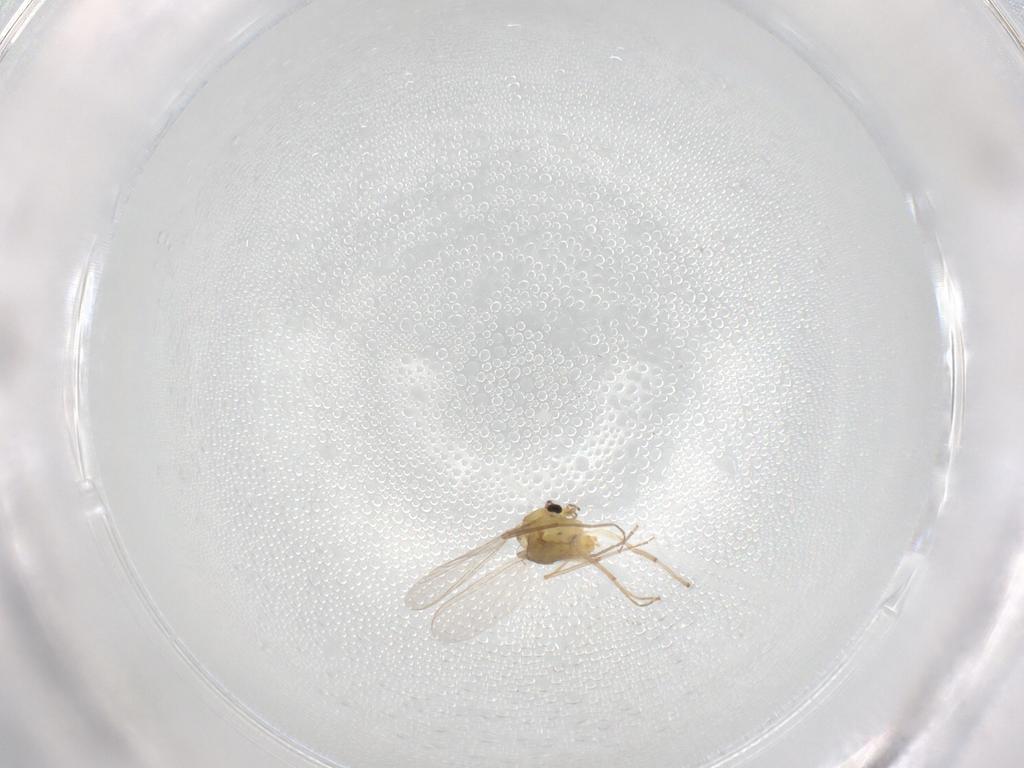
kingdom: Animalia
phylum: Arthropoda
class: Insecta
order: Diptera
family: Chironomidae
